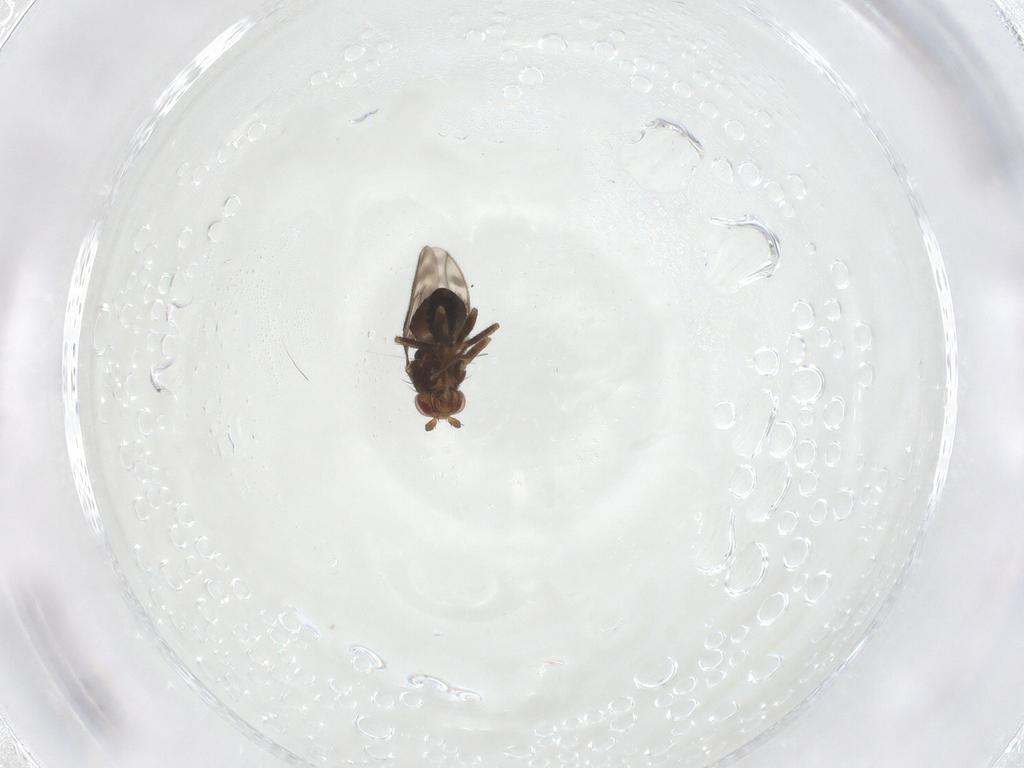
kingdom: Animalia
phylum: Arthropoda
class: Insecta
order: Diptera
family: Sphaeroceridae
